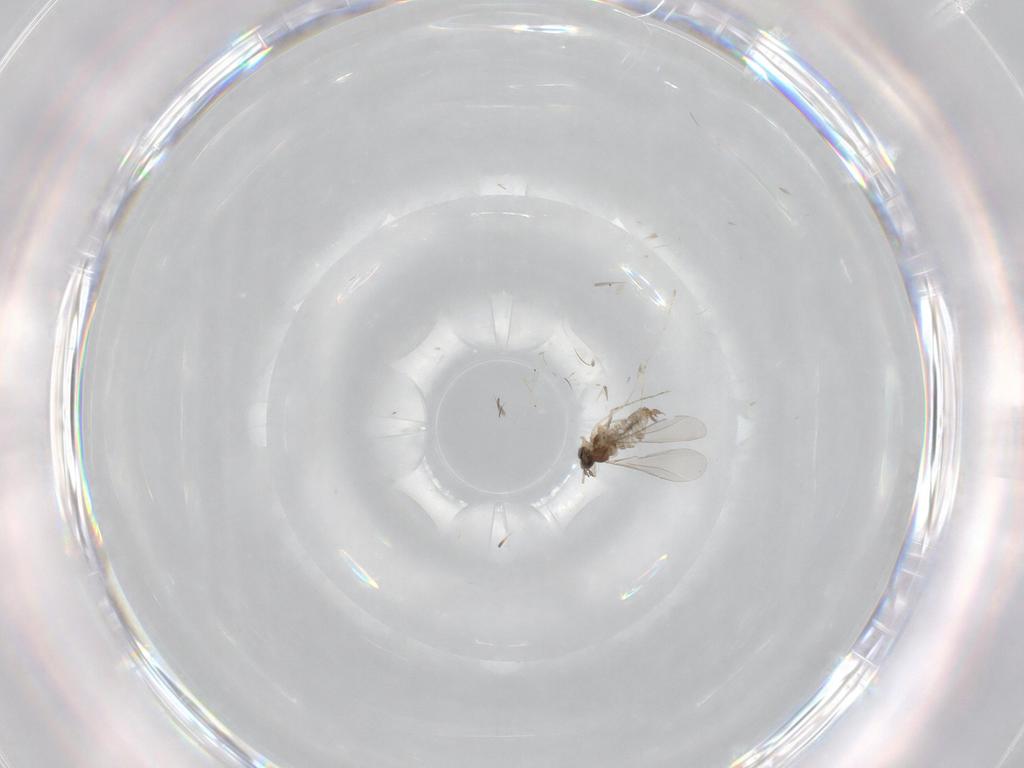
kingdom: Animalia
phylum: Arthropoda
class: Insecta
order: Diptera
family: Cecidomyiidae
